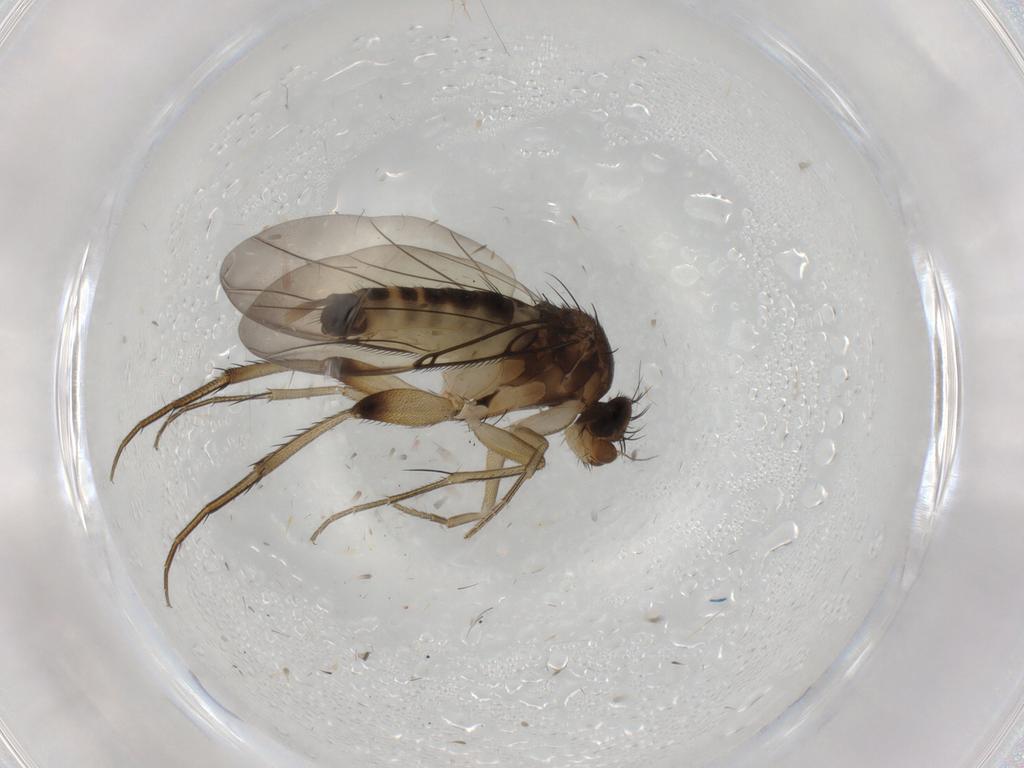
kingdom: Animalia
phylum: Arthropoda
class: Insecta
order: Diptera
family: Phoridae
